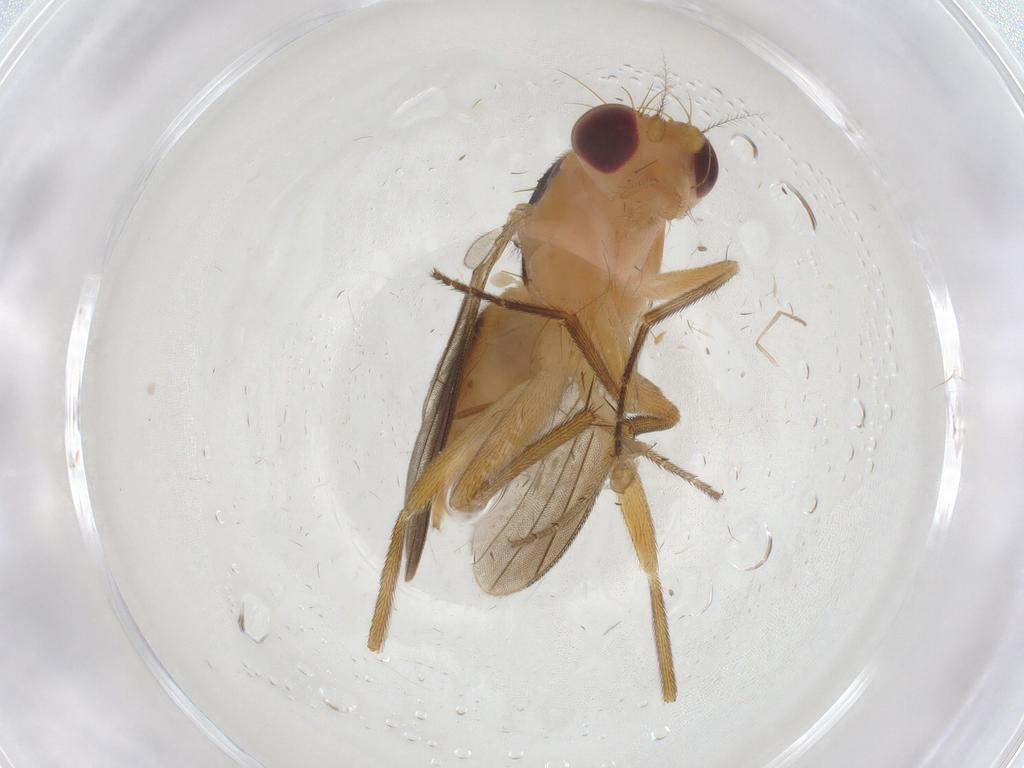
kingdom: Animalia
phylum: Arthropoda
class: Insecta
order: Diptera
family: Agromyzidae
